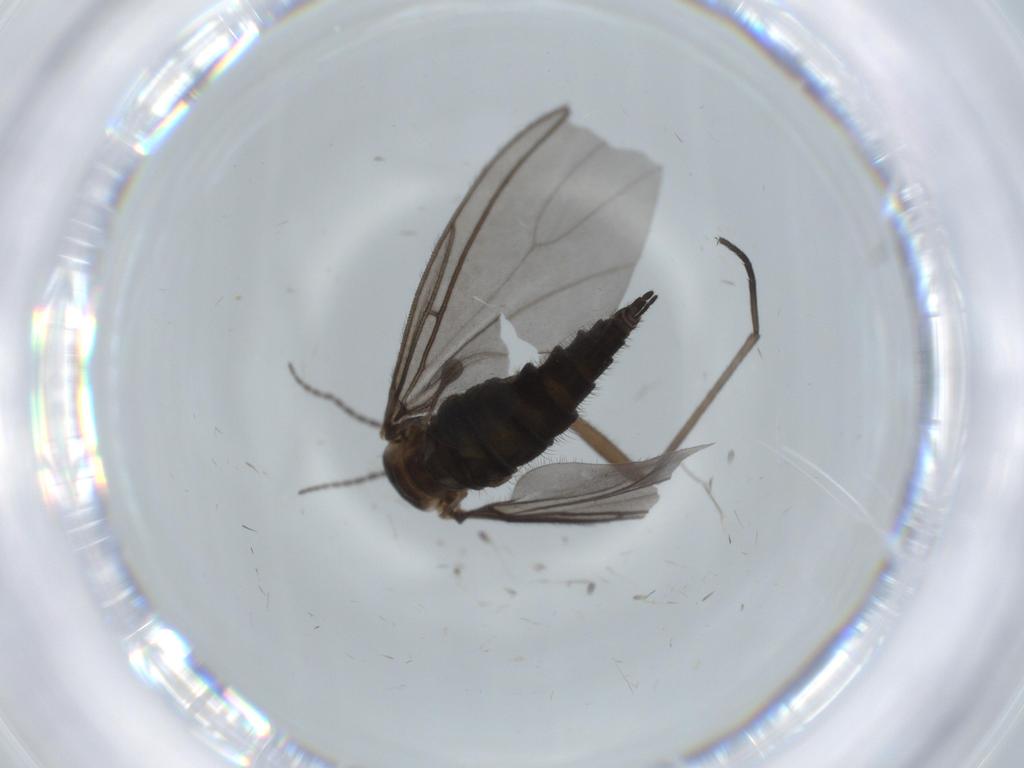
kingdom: Animalia
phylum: Arthropoda
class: Insecta
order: Diptera
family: Sciaridae
